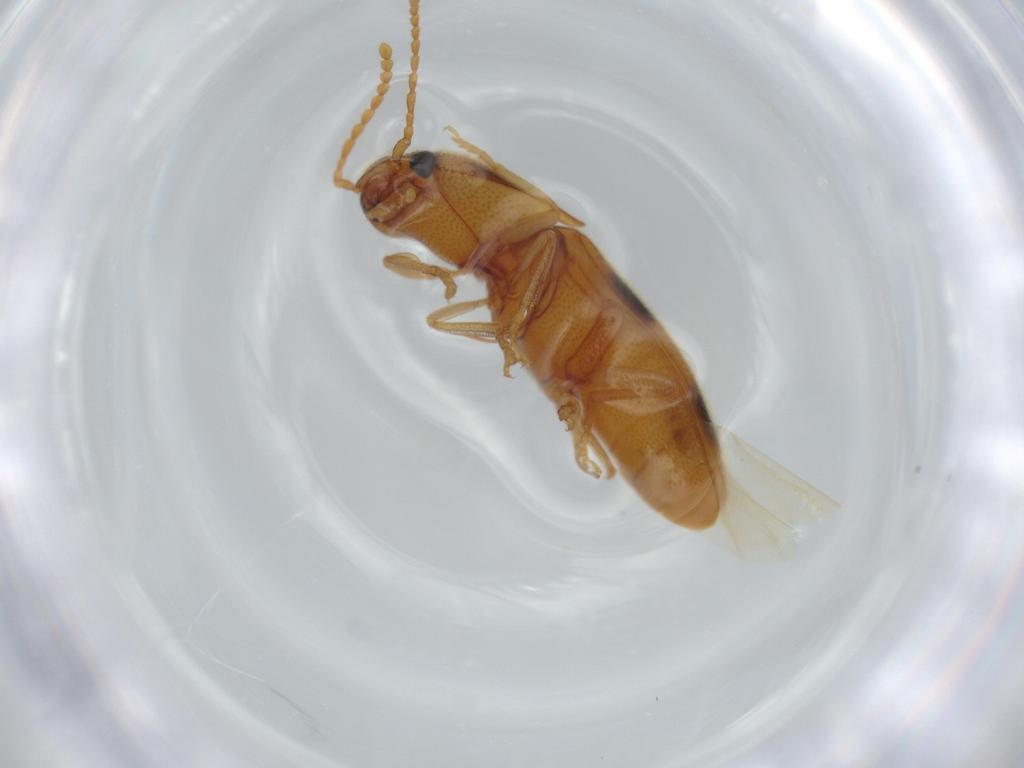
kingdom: Animalia
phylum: Arthropoda
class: Insecta
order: Coleoptera
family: Elateridae
